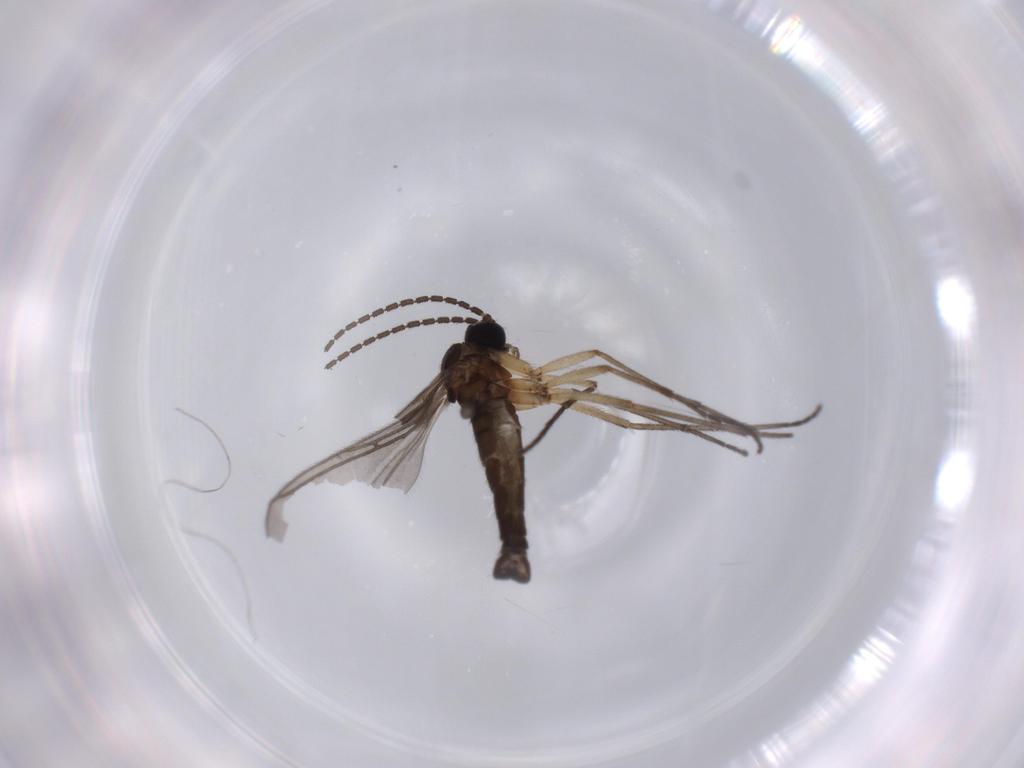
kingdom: Animalia
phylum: Arthropoda
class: Insecta
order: Diptera
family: Sciaridae
